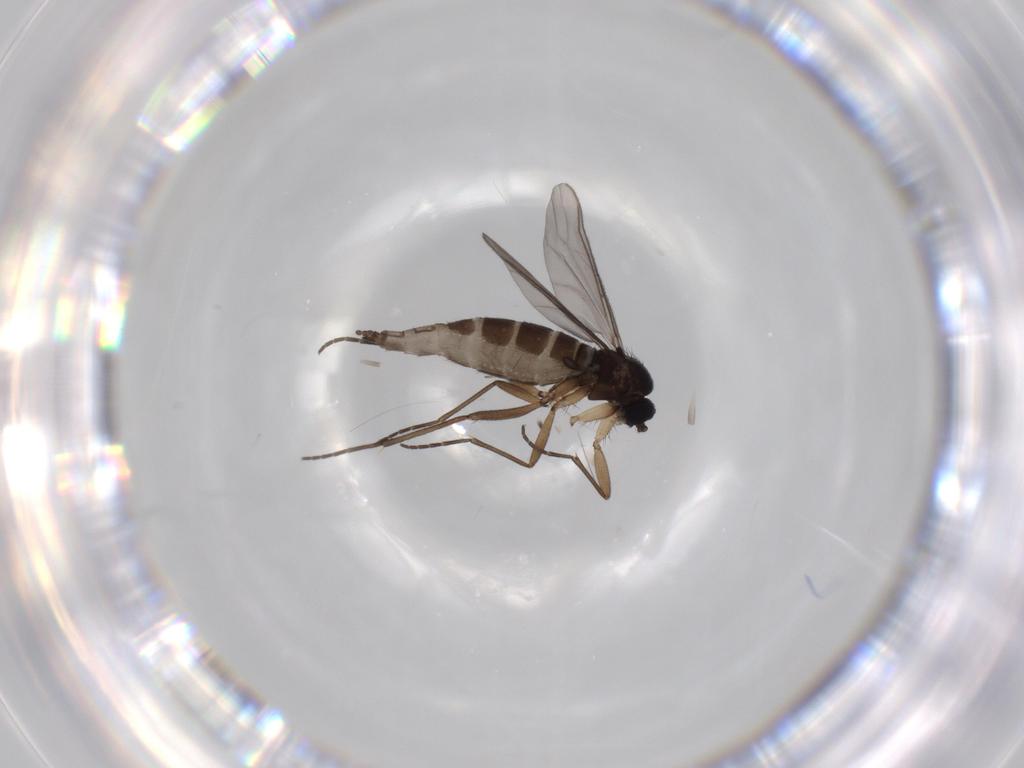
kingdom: Animalia
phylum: Arthropoda
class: Insecta
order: Diptera
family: Sciaridae
